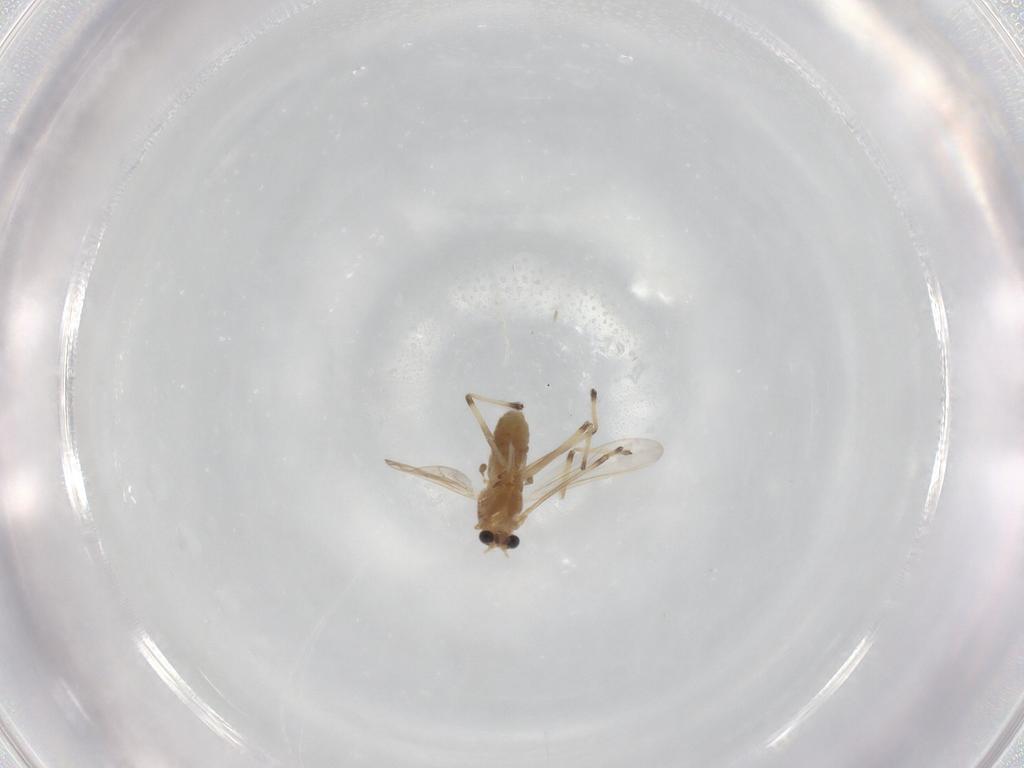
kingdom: Animalia
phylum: Arthropoda
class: Insecta
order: Diptera
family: Chironomidae
